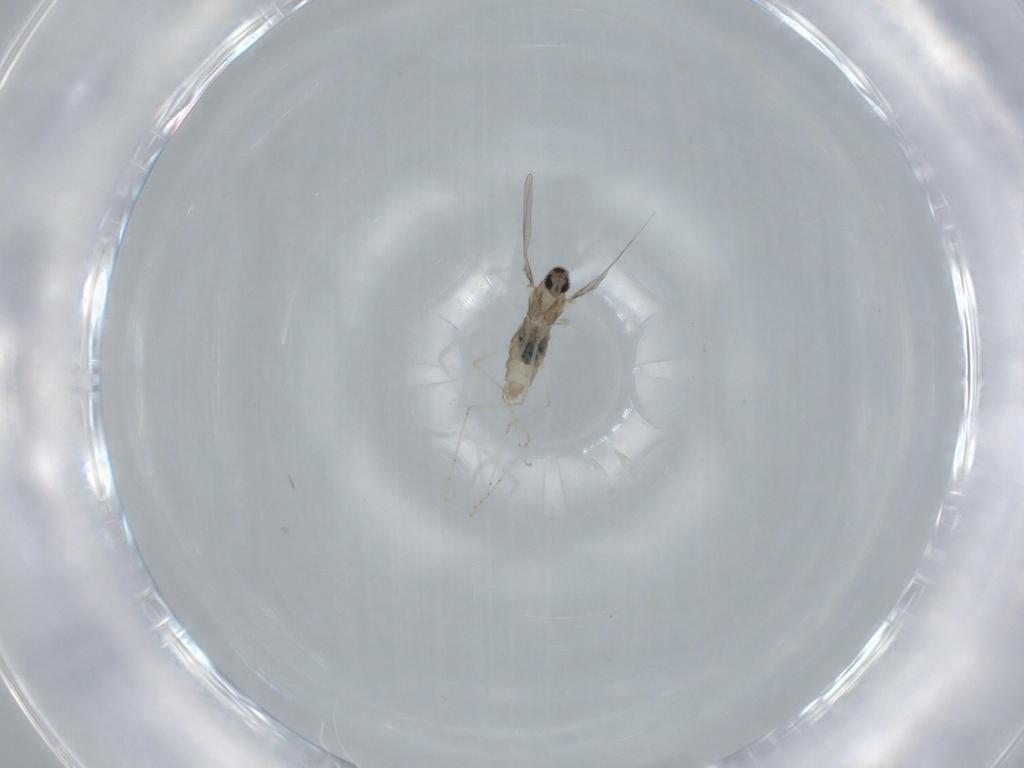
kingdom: Animalia
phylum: Arthropoda
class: Insecta
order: Diptera
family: Sciaridae
